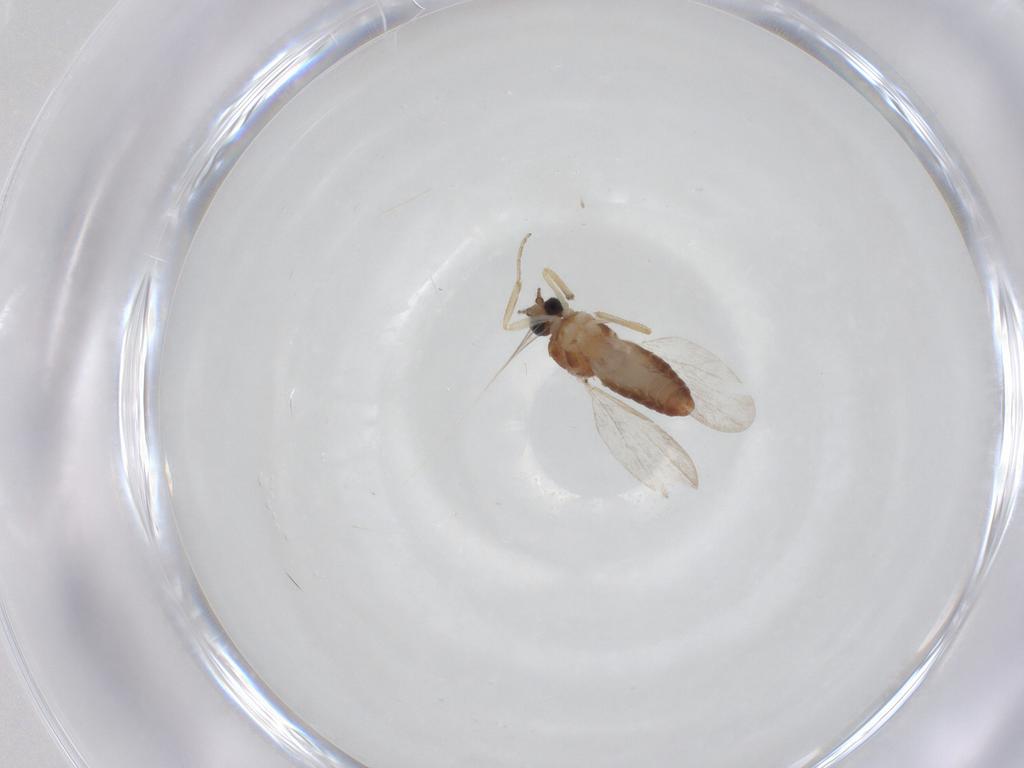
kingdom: Animalia
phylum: Arthropoda
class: Insecta
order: Diptera
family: Ceratopogonidae
